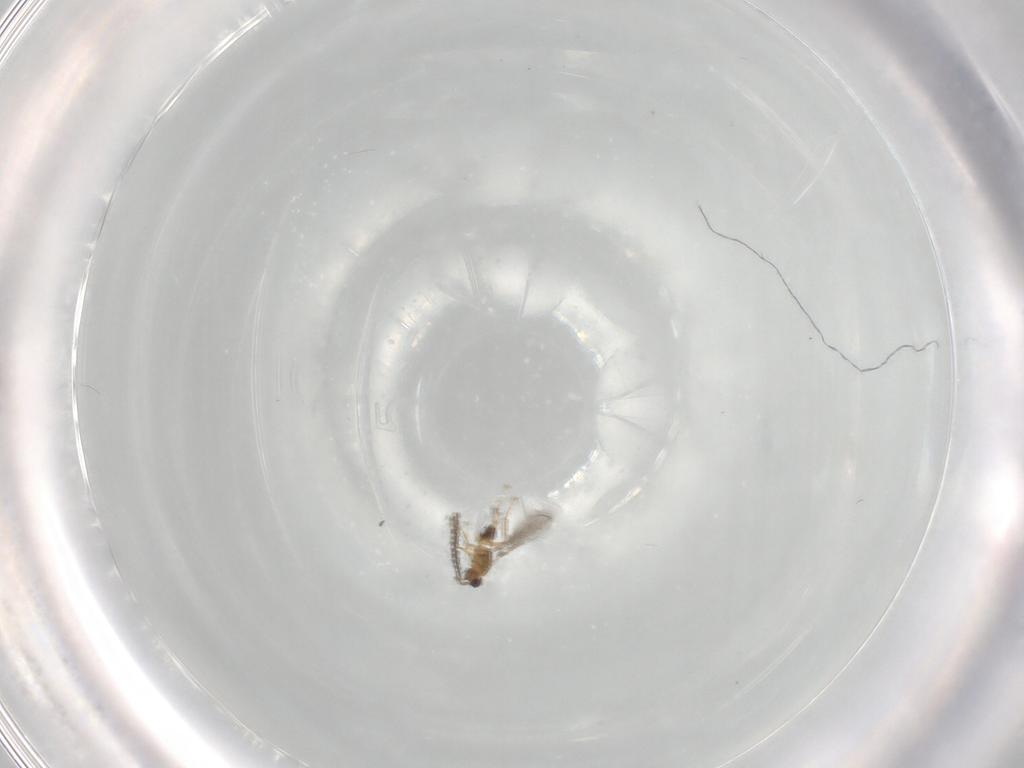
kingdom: Animalia
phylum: Arthropoda
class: Insecta
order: Hymenoptera
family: Mymaridae
